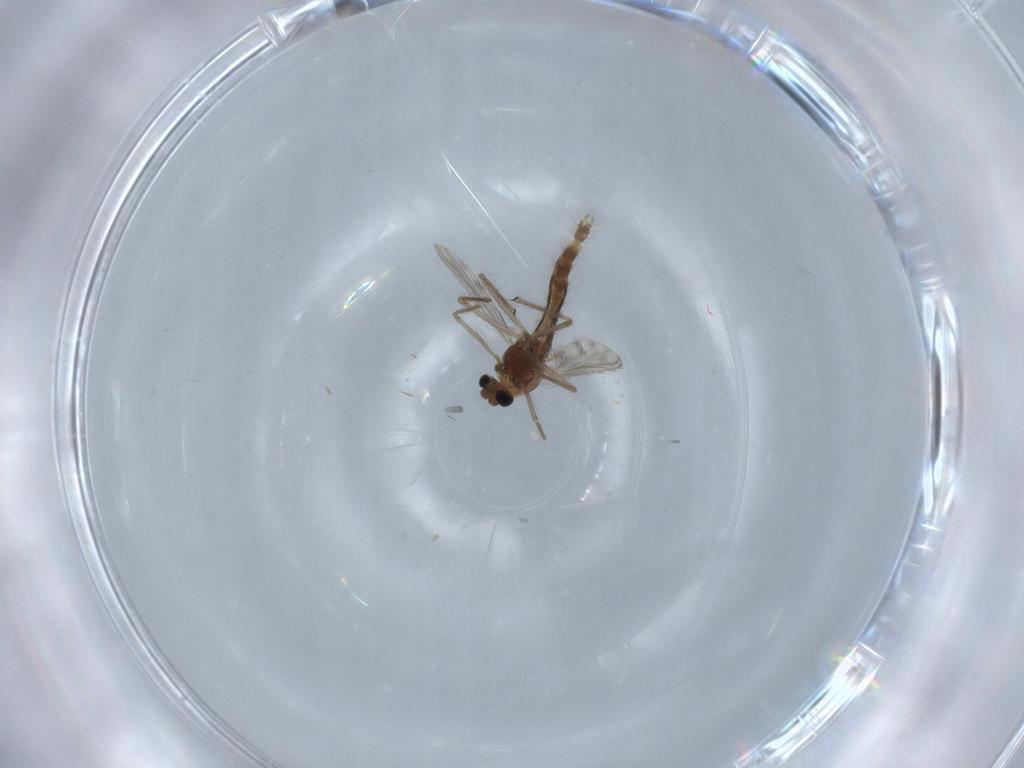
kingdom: Animalia
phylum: Arthropoda
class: Insecta
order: Diptera
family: Chironomidae
